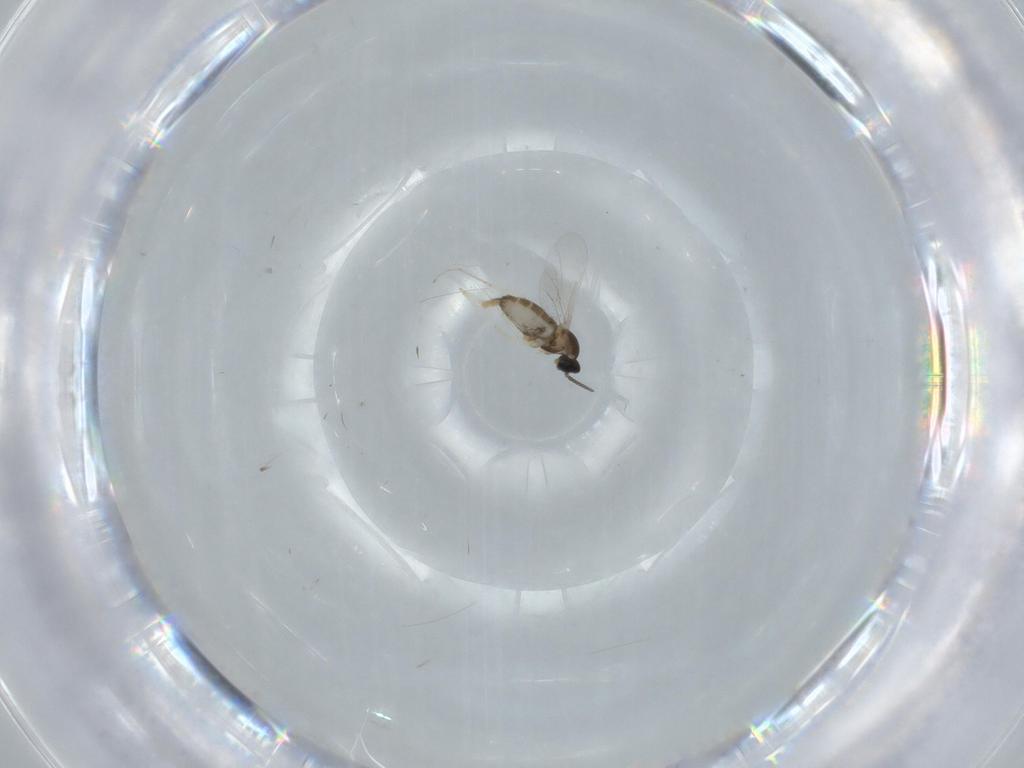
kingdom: Animalia
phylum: Arthropoda
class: Insecta
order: Diptera
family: Cecidomyiidae
